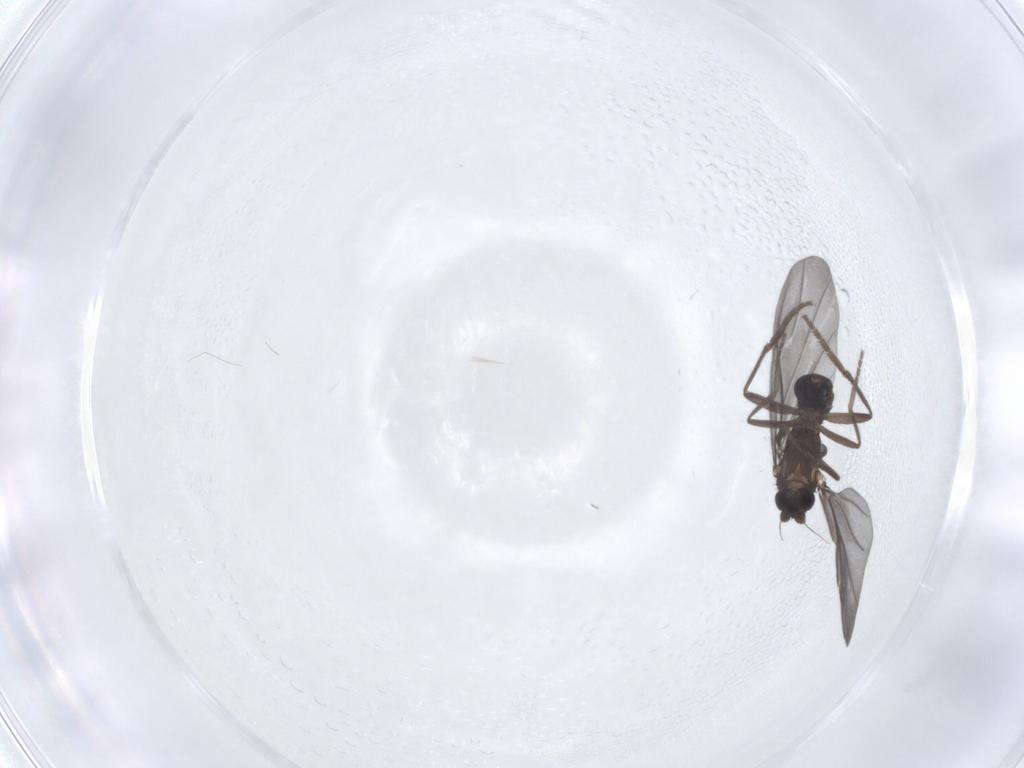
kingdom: Animalia
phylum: Arthropoda
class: Insecta
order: Diptera
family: Phoridae
